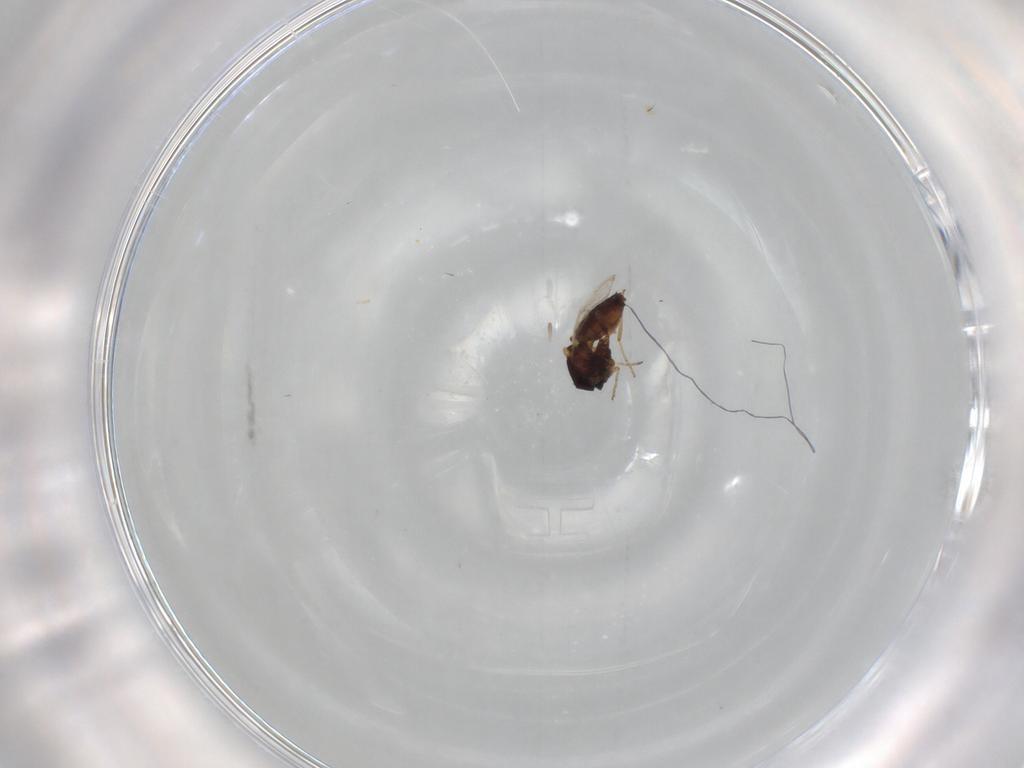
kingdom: Animalia
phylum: Arthropoda
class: Insecta
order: Diptera
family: Ceratopogonidae
